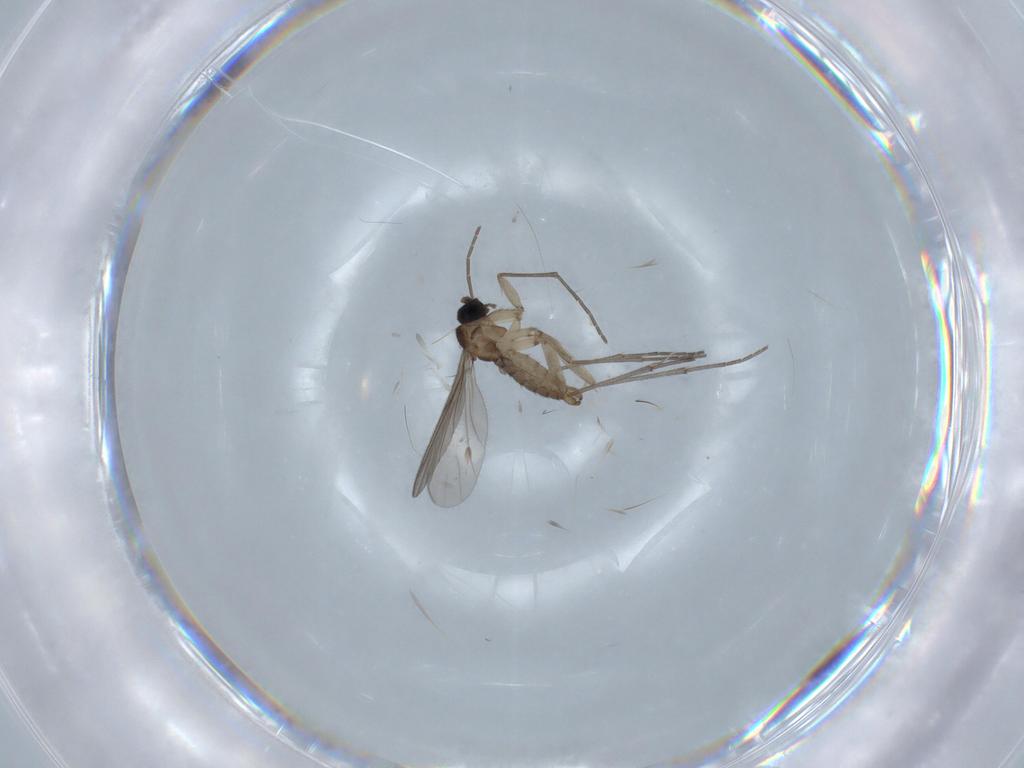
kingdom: Animalia
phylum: Arthropoda
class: Insecta
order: Diptera
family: Sciaridae
